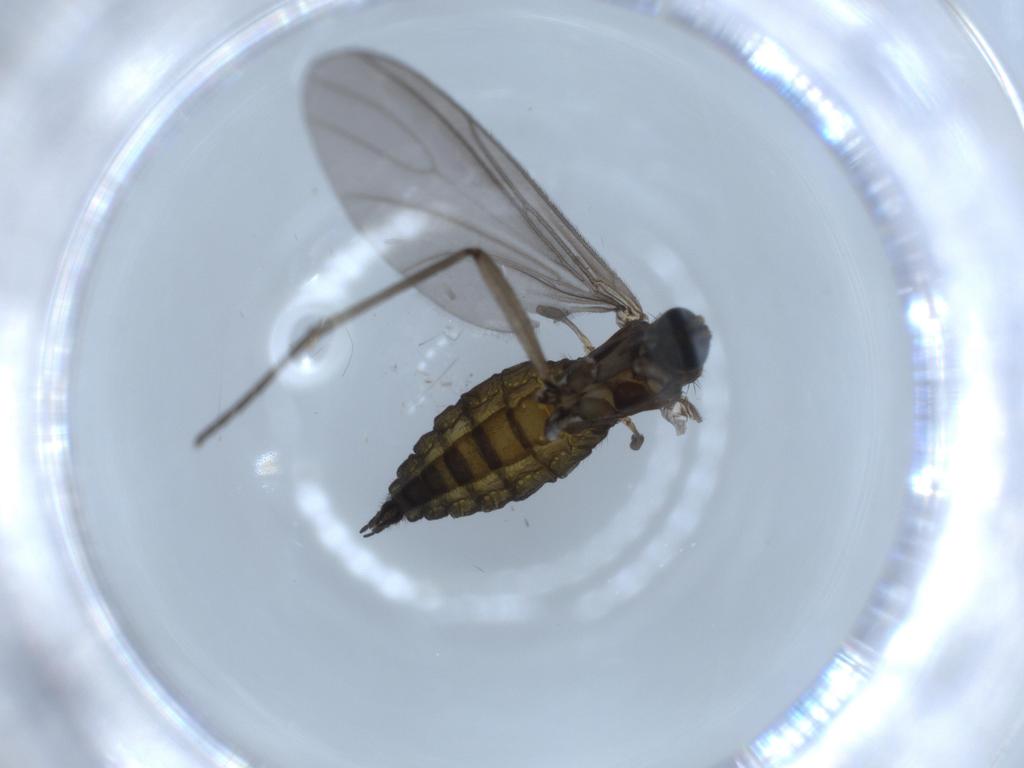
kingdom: Animalia
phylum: Arthropoda
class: Insecta
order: Diptera
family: Sciaridae
